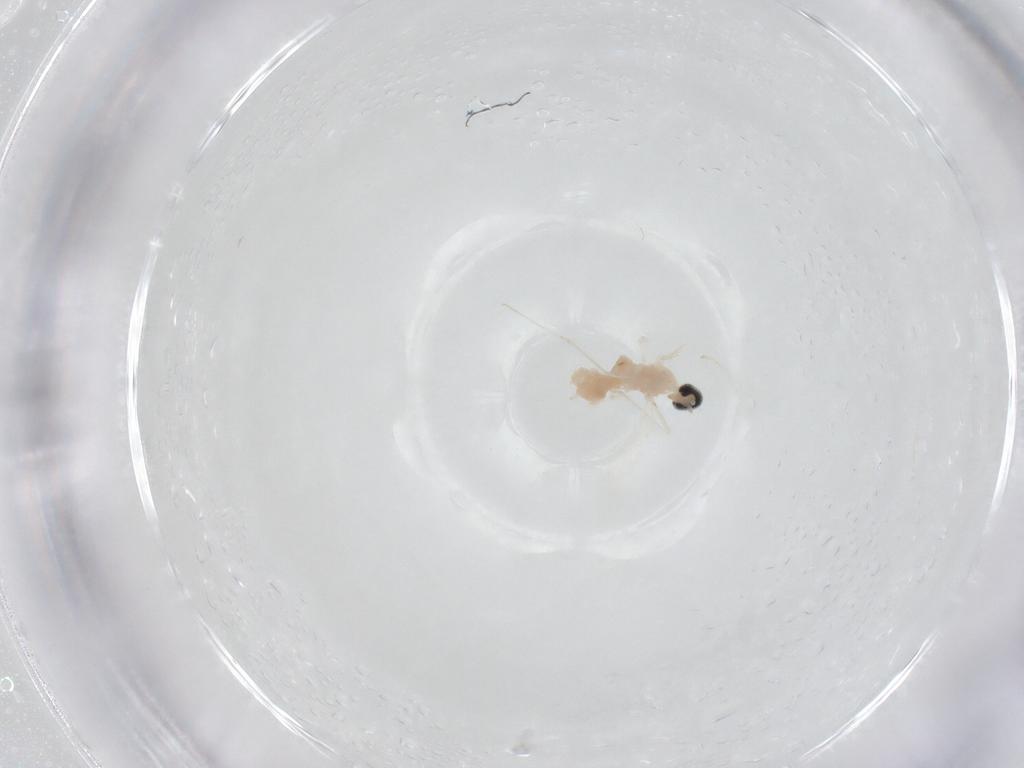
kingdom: Animalia
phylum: Arthropoda
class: Insecta
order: Diptera
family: Cecidomyiidae
